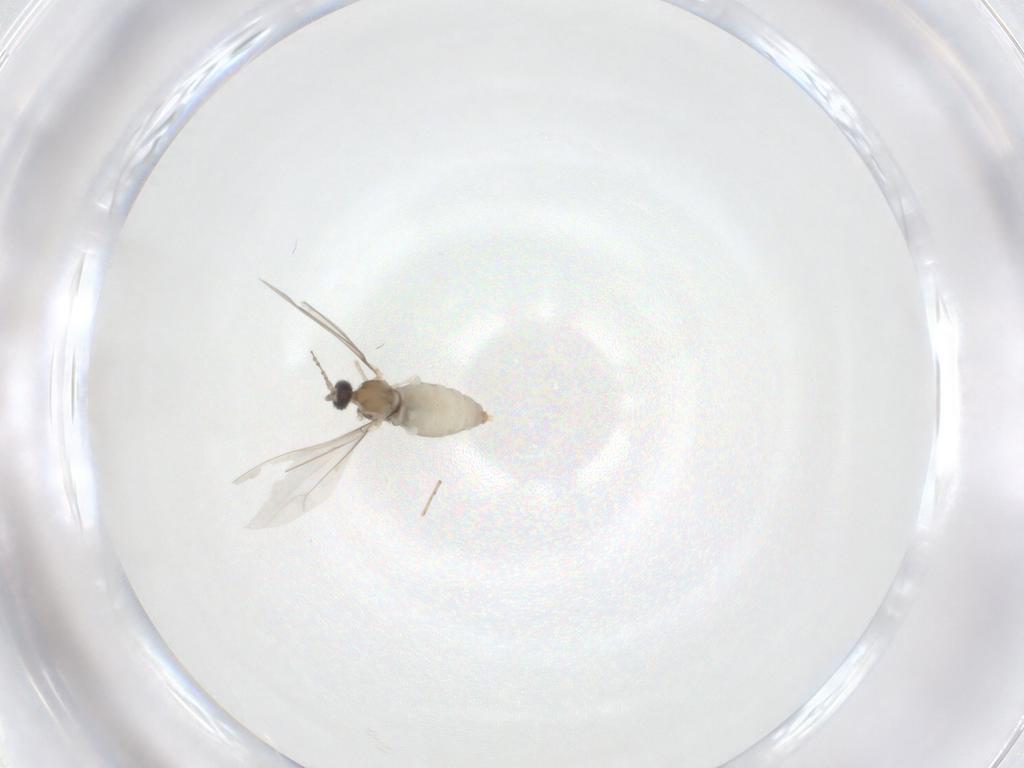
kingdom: Animalia
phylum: Arthropoda
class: Insecta
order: Diptera
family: Cecidomyiidae
